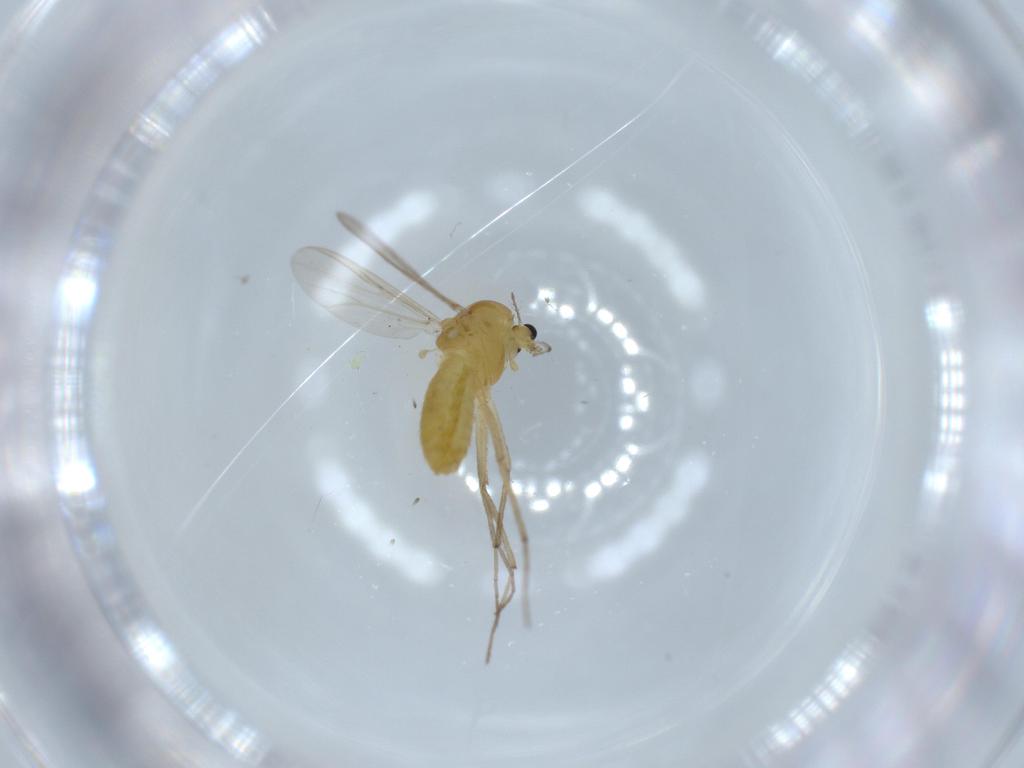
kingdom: Animalia
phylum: Arthropoda
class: Insecta
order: Diptera
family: Chironomidae
